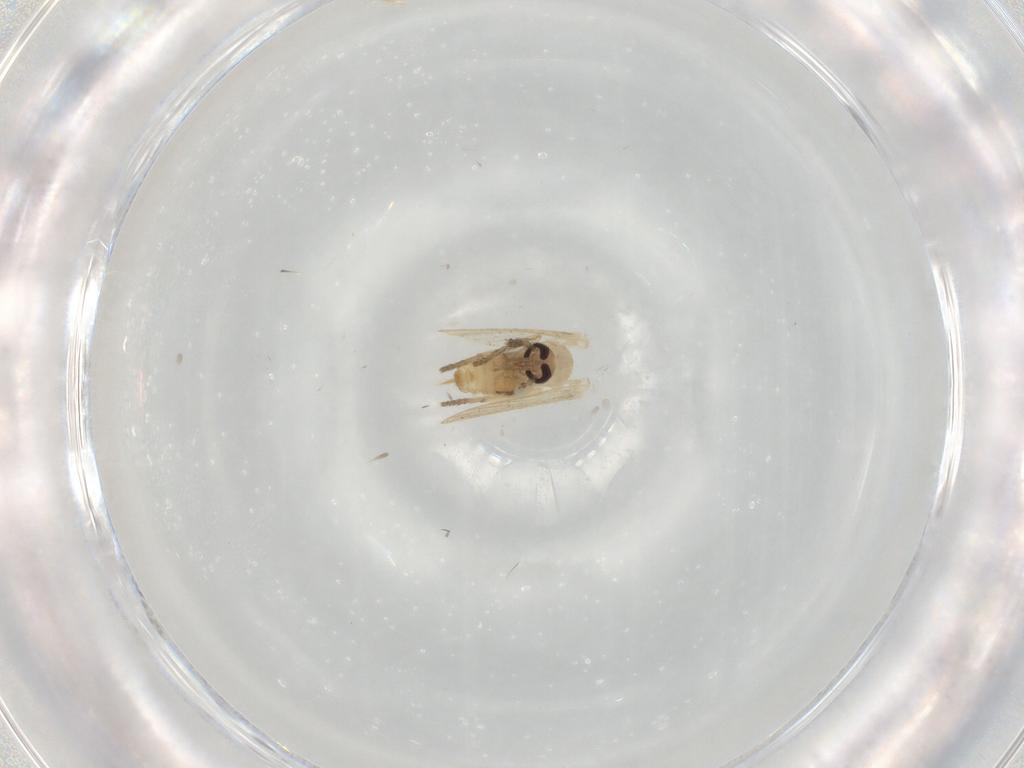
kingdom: Animalia
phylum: Arthropoda
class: Insecta
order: Diptera
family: Psychodidae
